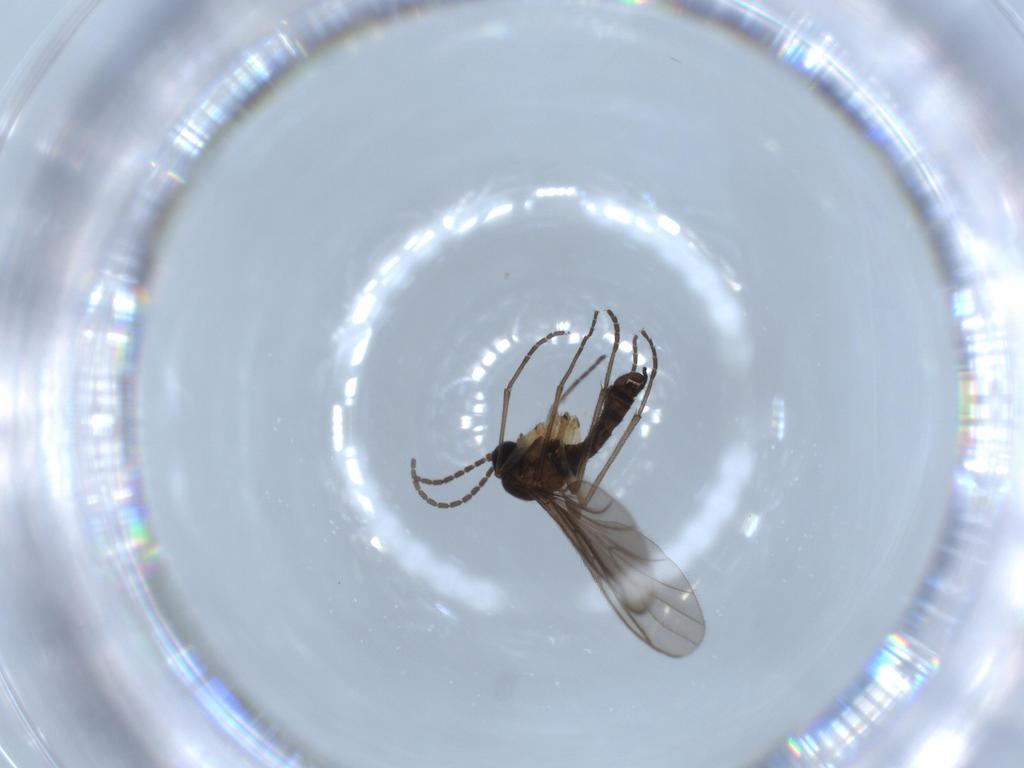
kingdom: Animalia
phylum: Arthropoda
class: Insecta
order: Diptera
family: Sciaridae
